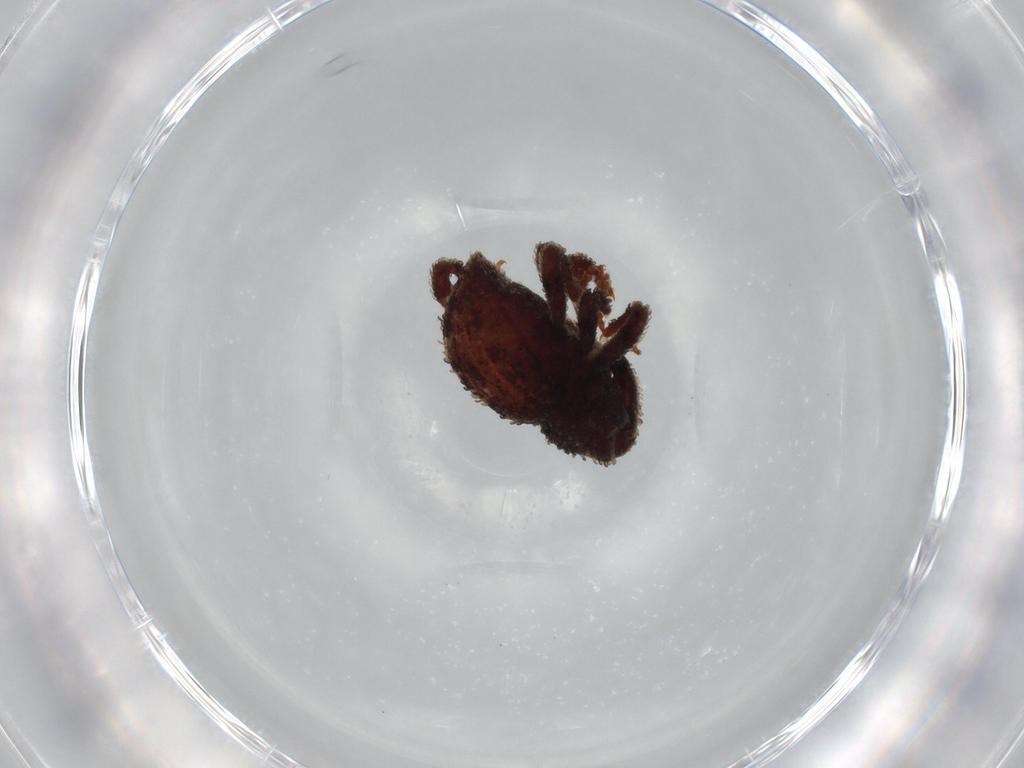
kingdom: Animalia
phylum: Arthropoda
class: Insecta
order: Coleoptera
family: Curculionidae
